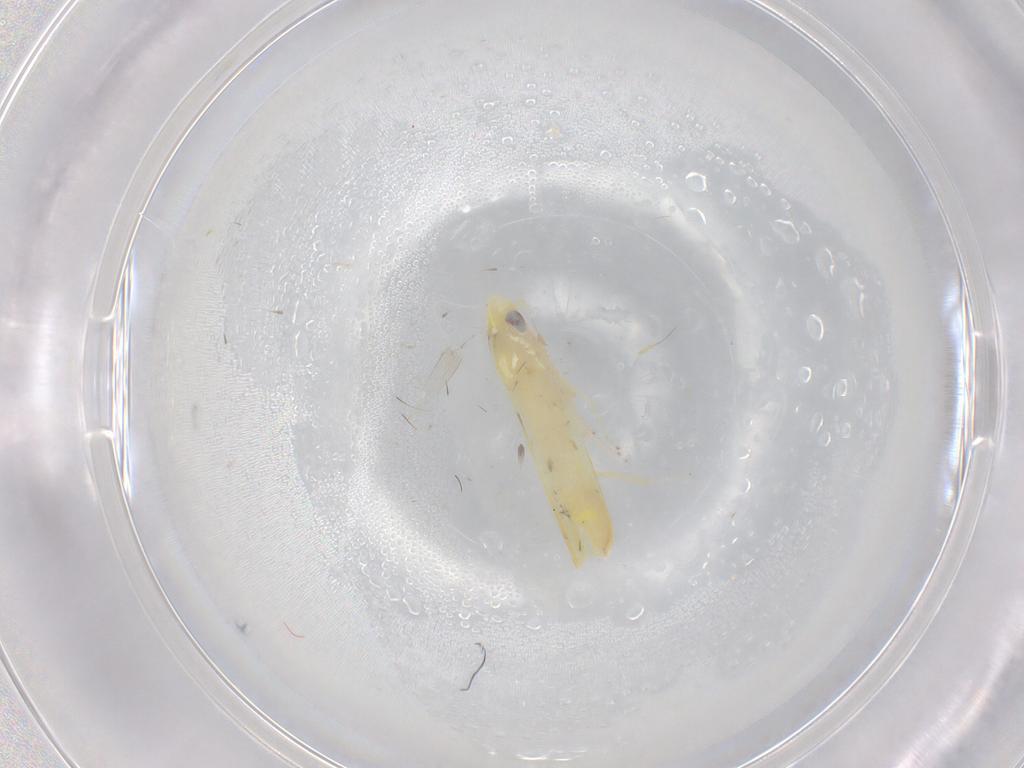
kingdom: Animalia
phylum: Arthropoda
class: Insecta
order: Hemiptera
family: Cicadellidae
